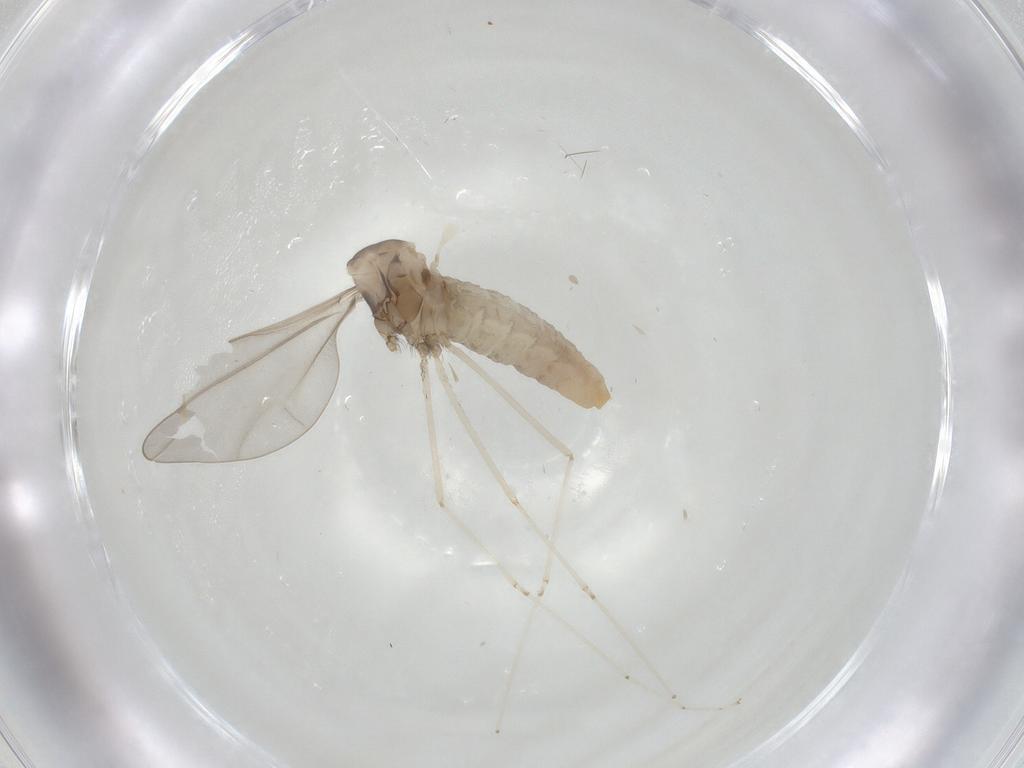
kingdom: Animalia
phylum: Arthropoda
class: Insecta
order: Diptera
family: Cecidomyiidae
